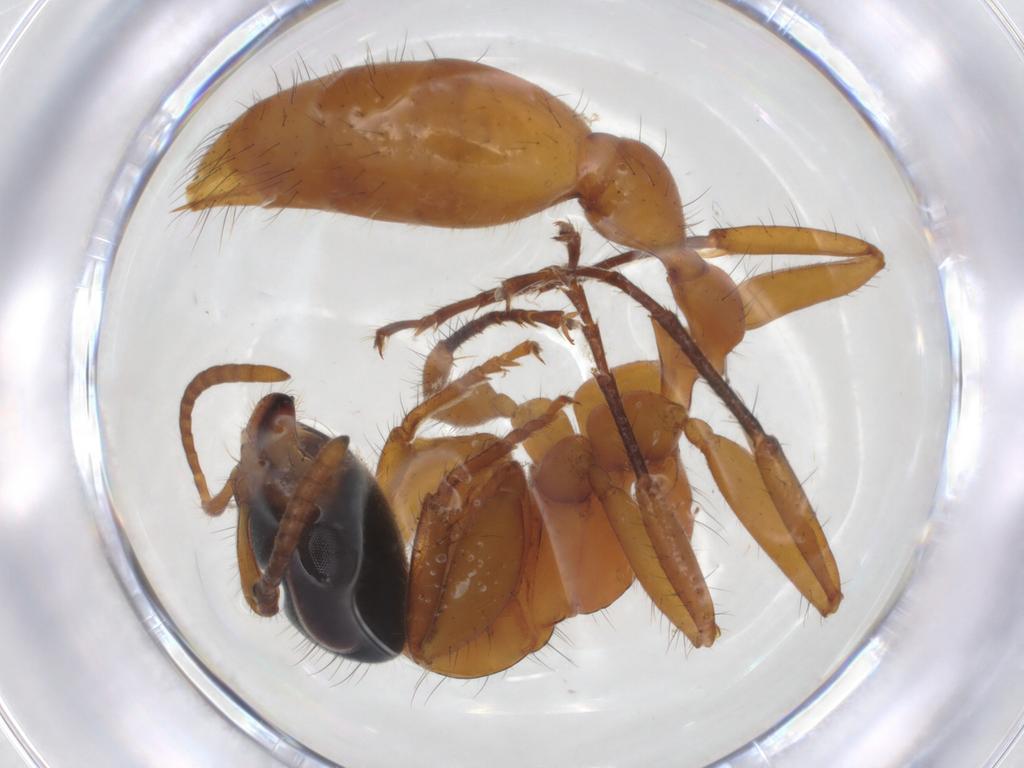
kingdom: Animalia
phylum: Arthropoda
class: Insecta
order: Hymenoptera
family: Formicidae
